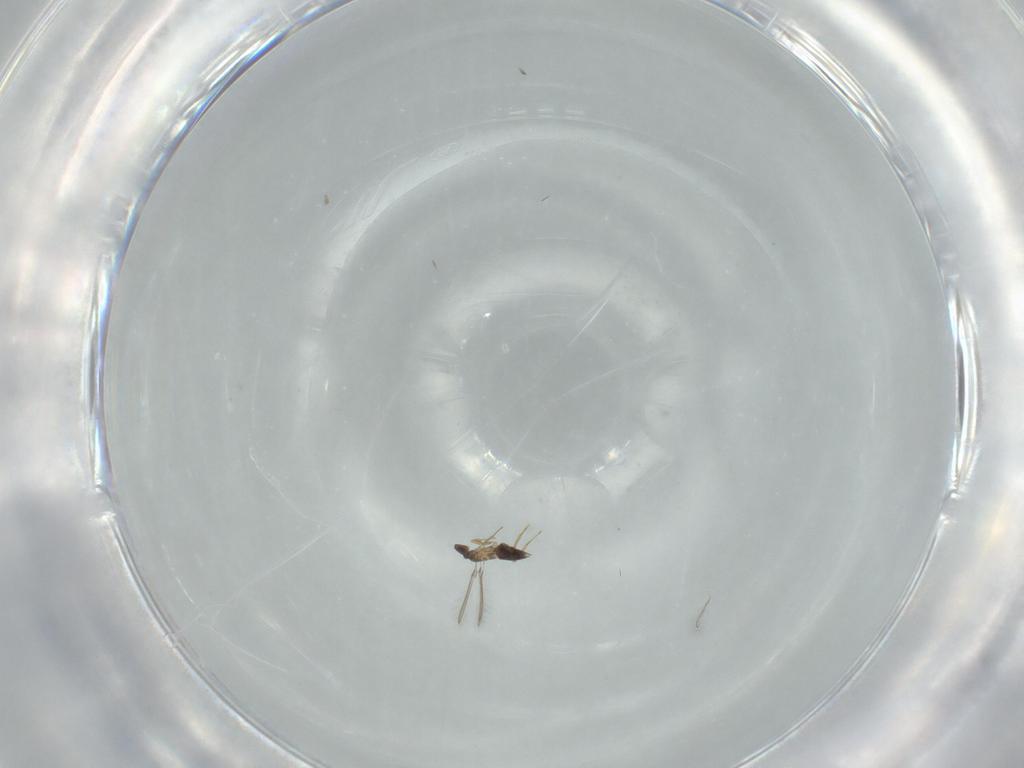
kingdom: Animalia
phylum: Arthropoda
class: Insecta
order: Hymenoptera
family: Mymaridae
